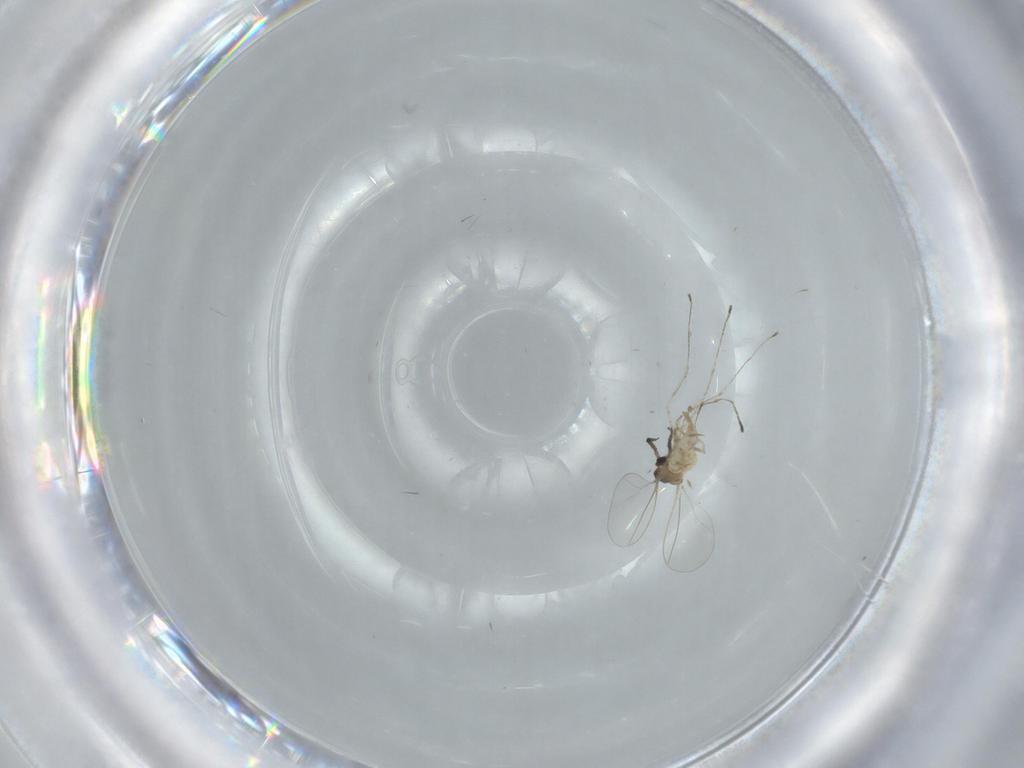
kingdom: Animalia
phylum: Arthropoda
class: Insecta
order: Diptera
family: Cecidomyiidae
